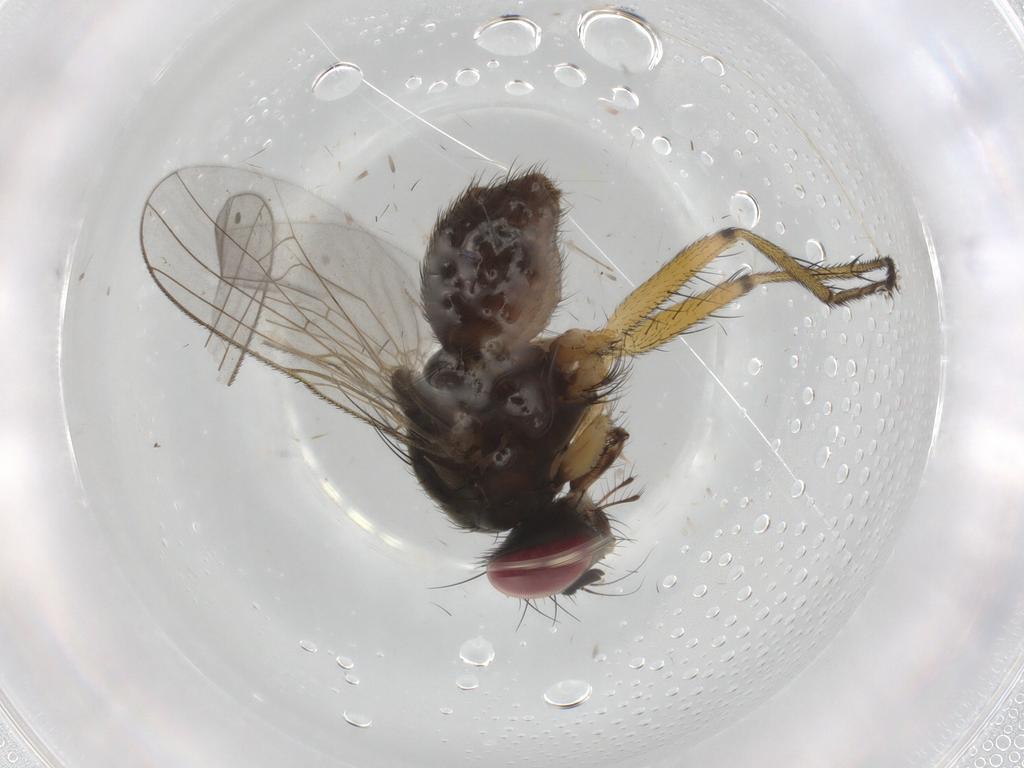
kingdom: Animalia
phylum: Arthropoda
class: Insecta
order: Diptera
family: Muscidae
